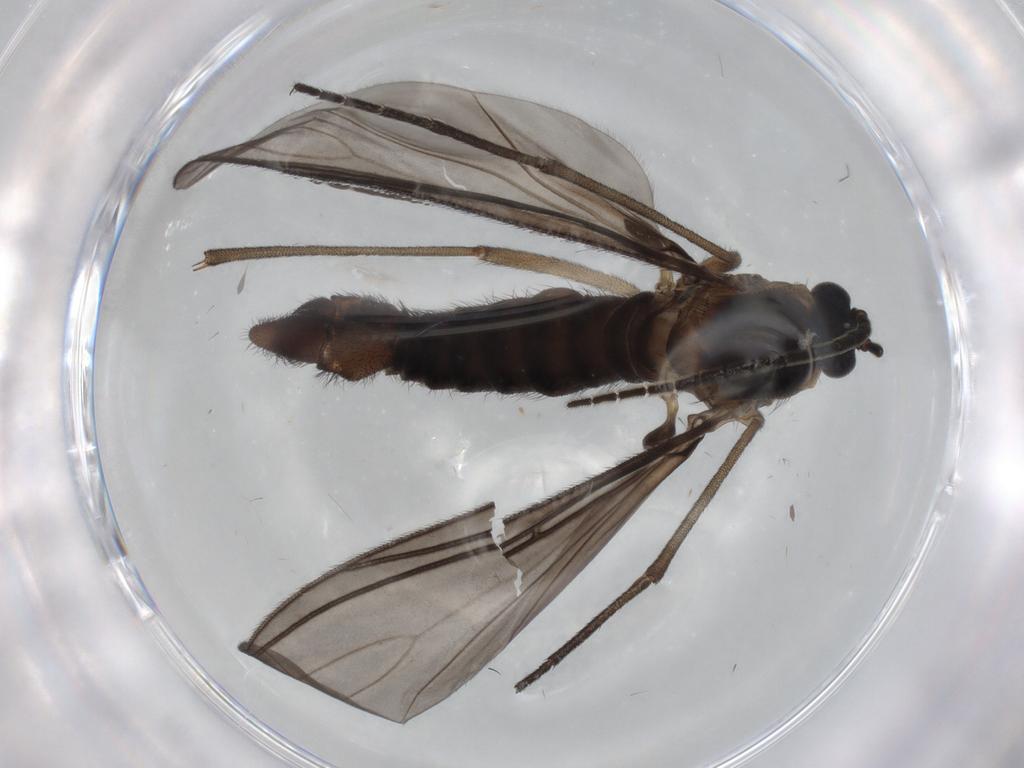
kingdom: Animalia
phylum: Arthropoda
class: Insecta
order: Diptera
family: Sciaridae
